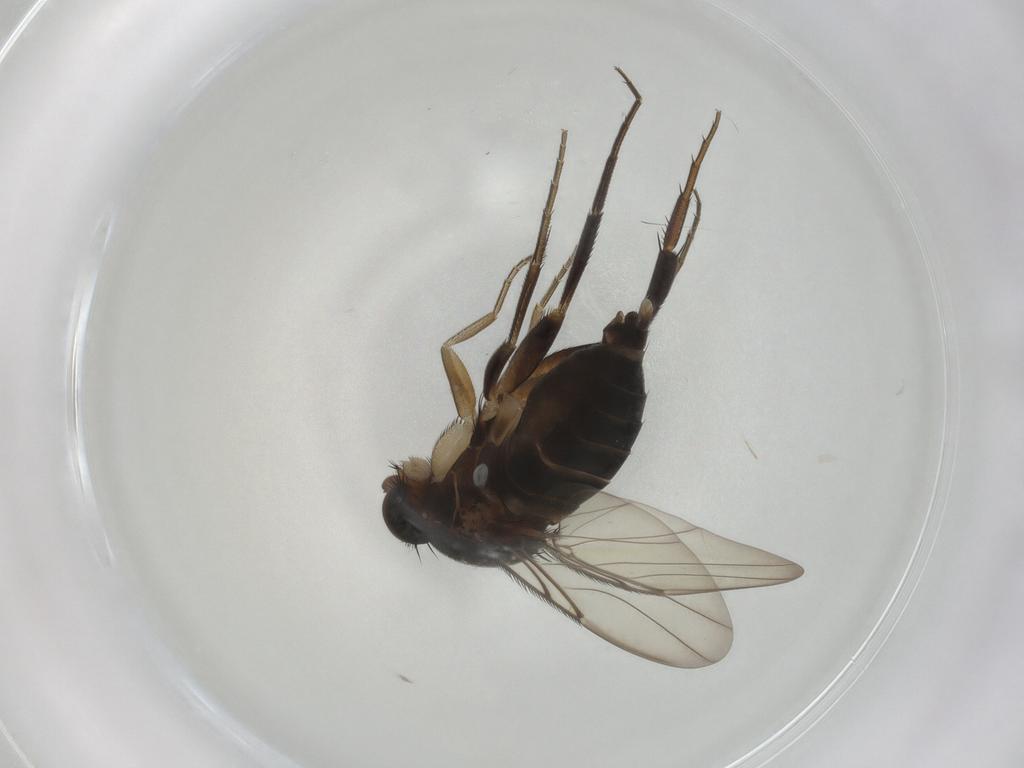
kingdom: Animalia
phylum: Arthropoda
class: Insecta
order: Diptera
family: Phoridae
